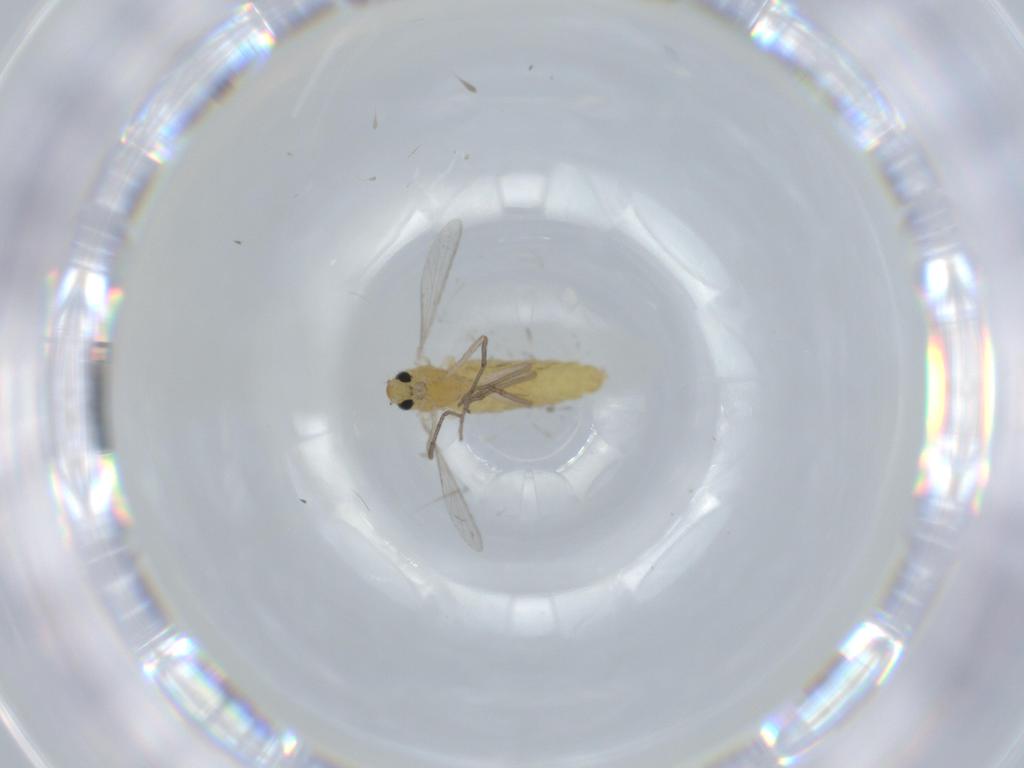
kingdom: Animalia
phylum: Arthropoda
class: Insecta
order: Diptera
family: Chironomidae
